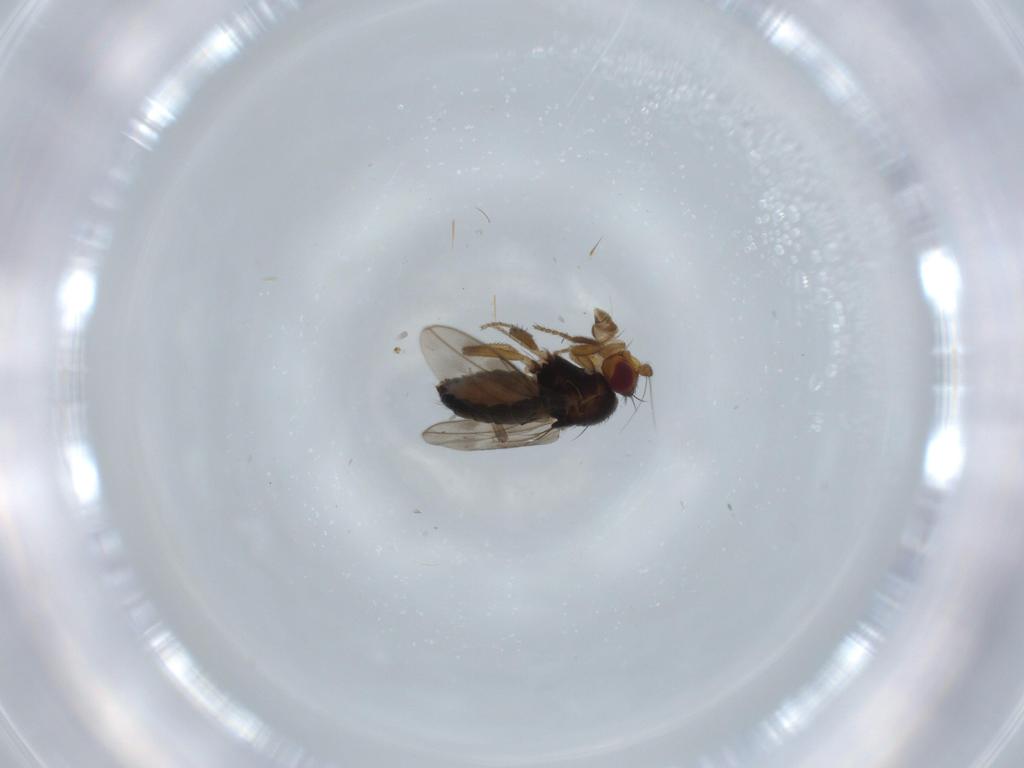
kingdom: Animalia
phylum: Arthropoda
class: Insecta
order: Diptera
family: Sphaeroceridae
